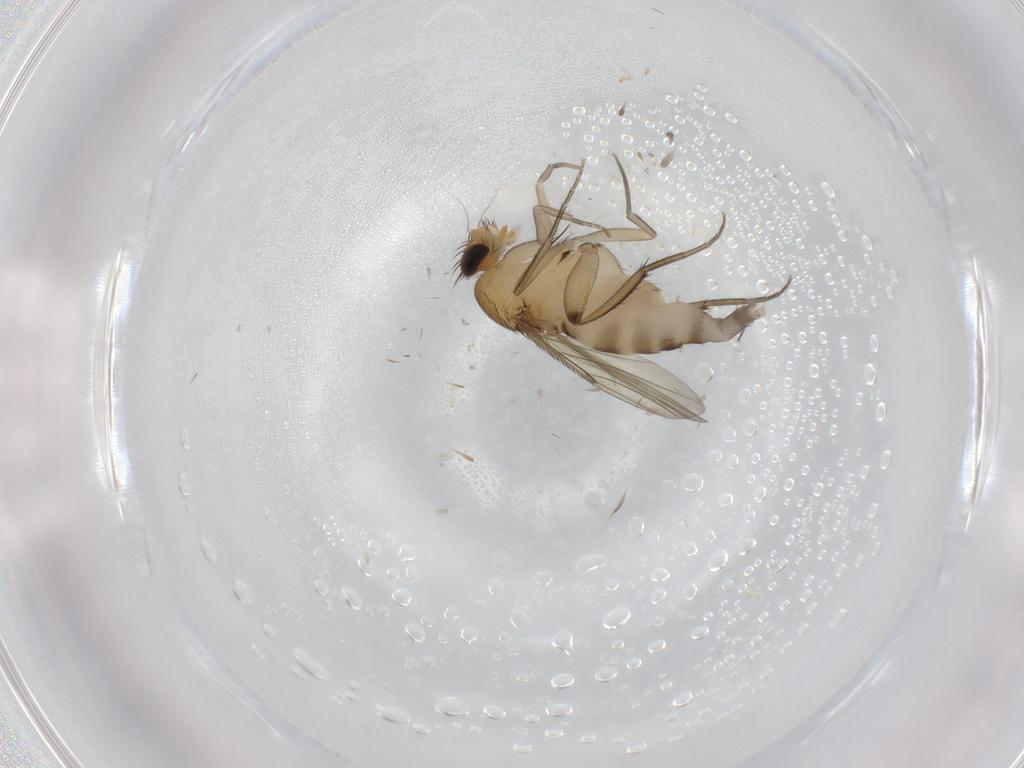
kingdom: Animalia
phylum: Arthropoda
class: Insecta
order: Diptera
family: Phoridae
